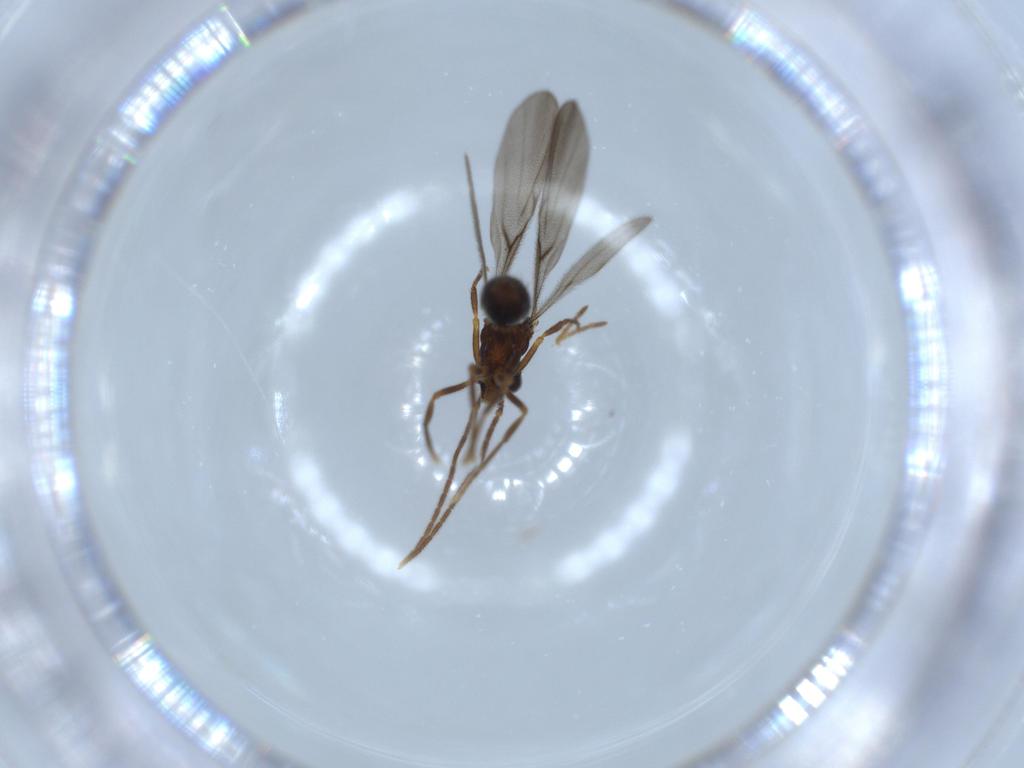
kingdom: Animalia
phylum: Arthropoda
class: Insecta
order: Hymenoptera
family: Formicidae
